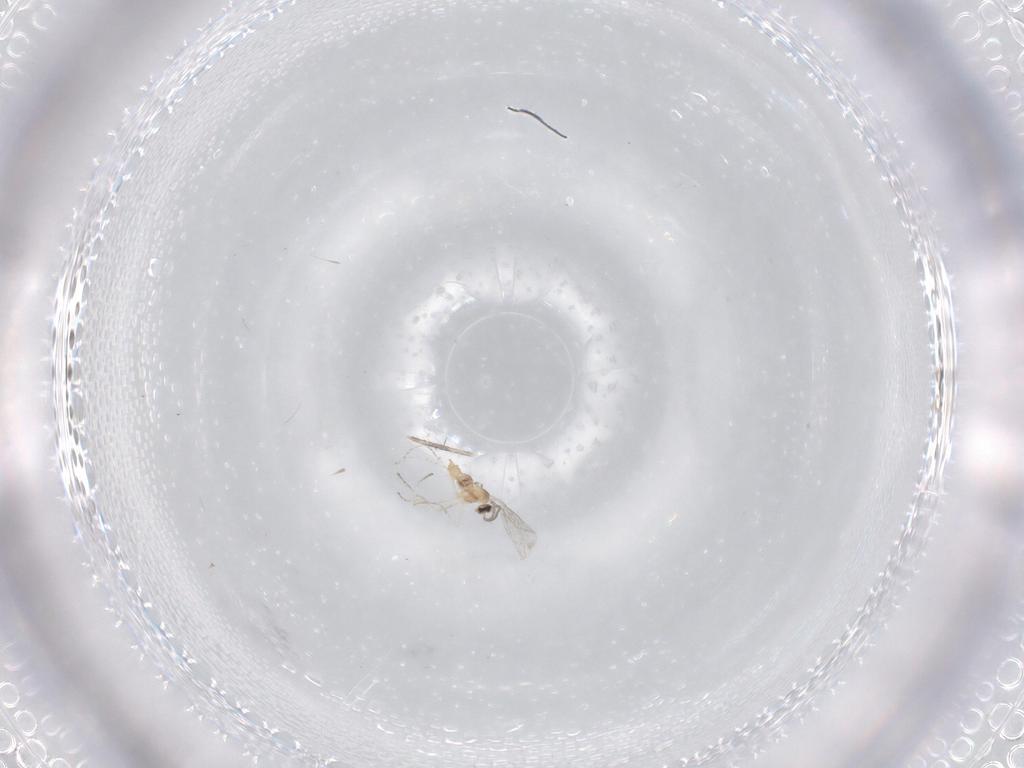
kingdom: Animalia
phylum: Arthropoda
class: Insecta
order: Diptera
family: Cecidomyiidae
